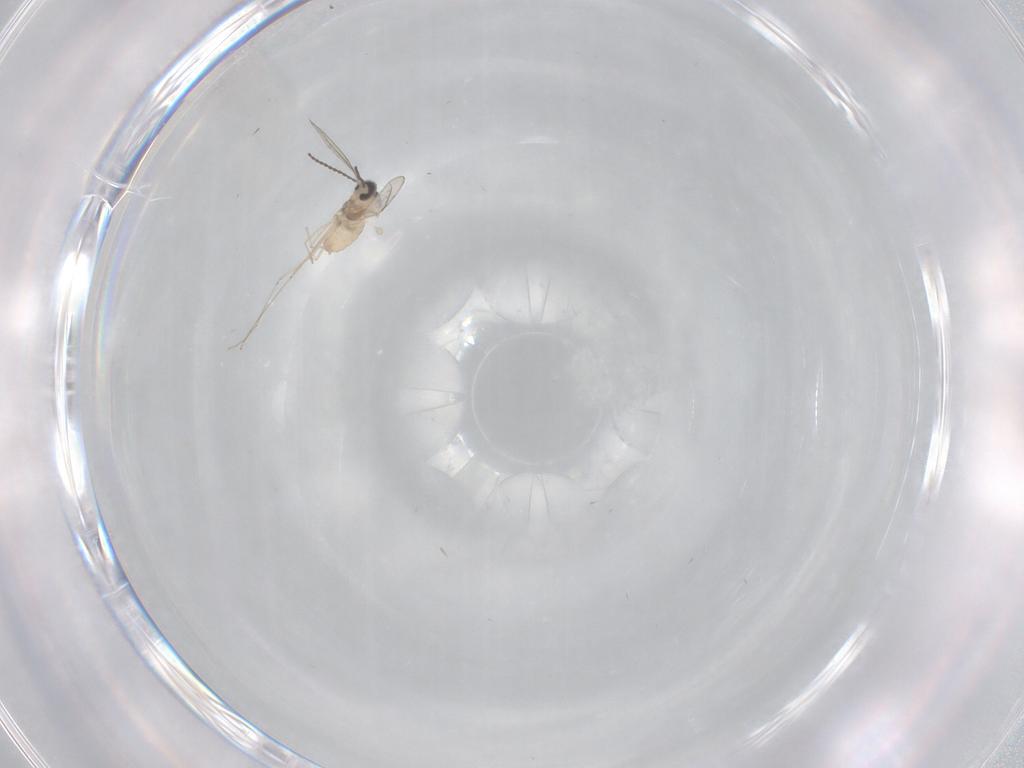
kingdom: Animalia
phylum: Arthropoda
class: Insecta
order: Diptera
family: Cecidomyiidae
